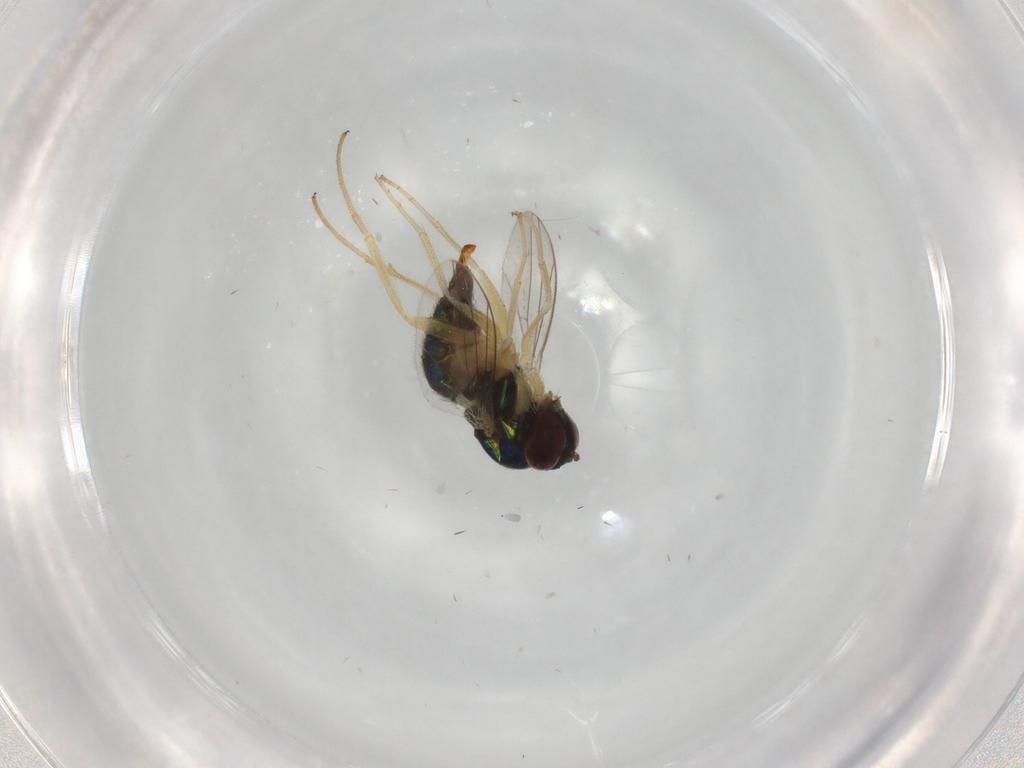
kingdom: Animalia
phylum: Arthropoda
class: Insecta
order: Diptera
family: Dolichopodidae
